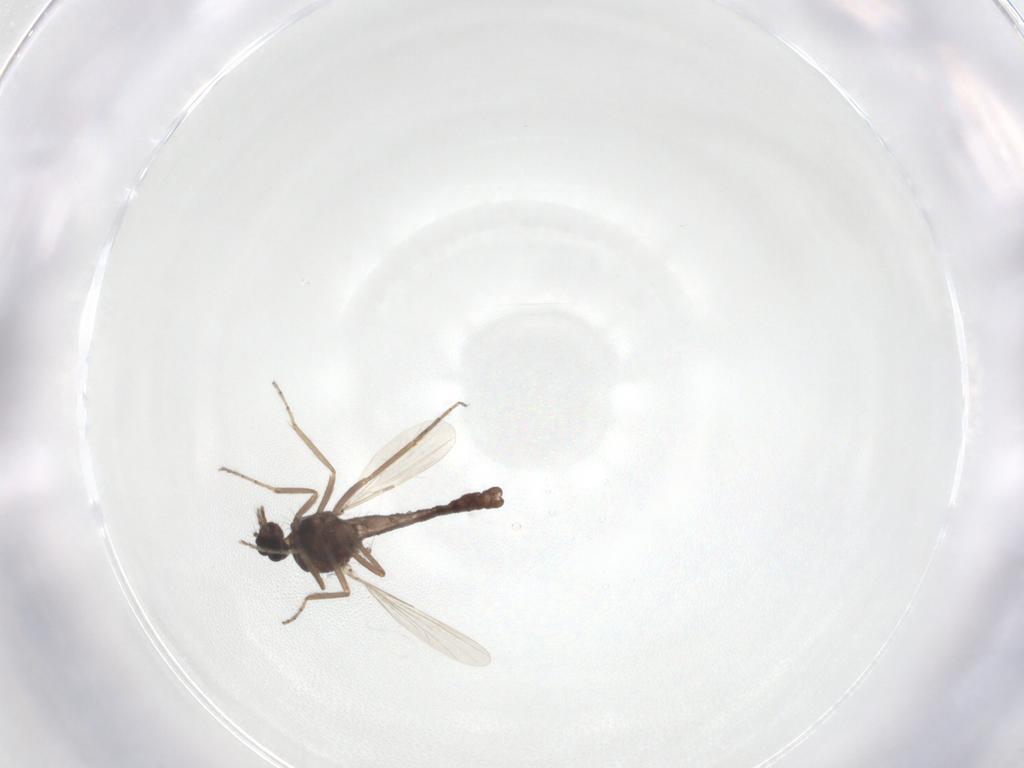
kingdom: Animalia
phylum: Arthropoda
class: Insecta
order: Diptera
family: Ceratopogonidae
